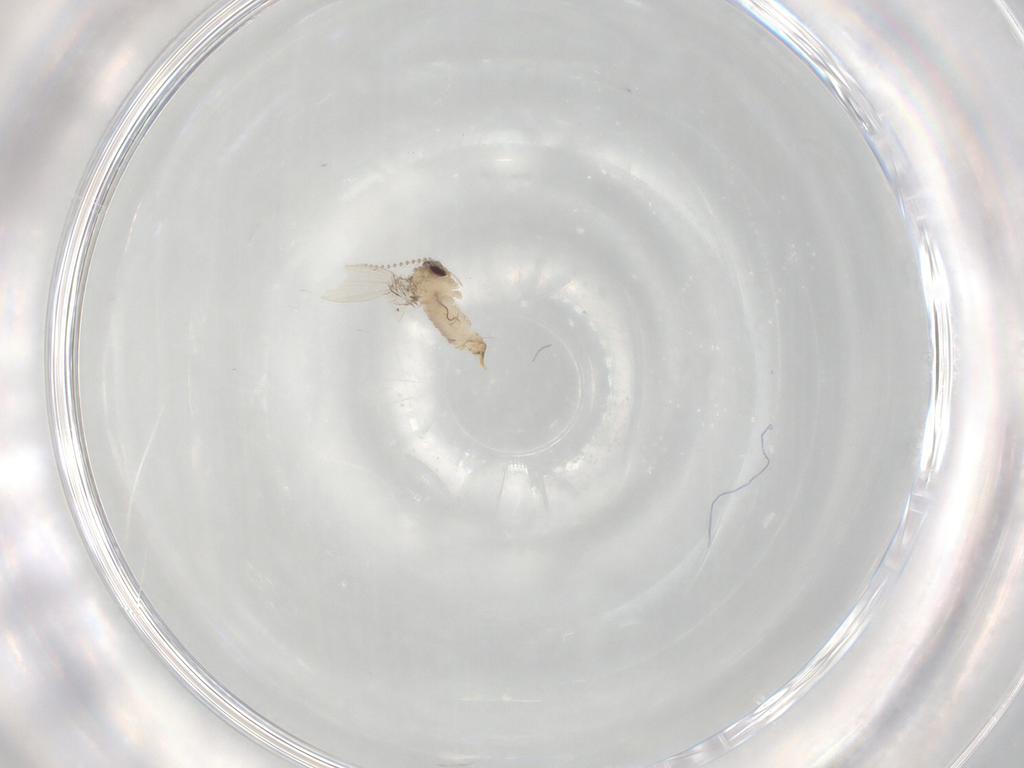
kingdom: Animalia
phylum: Arthropoda
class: Insecta
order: Diptera
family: Psychodidae
